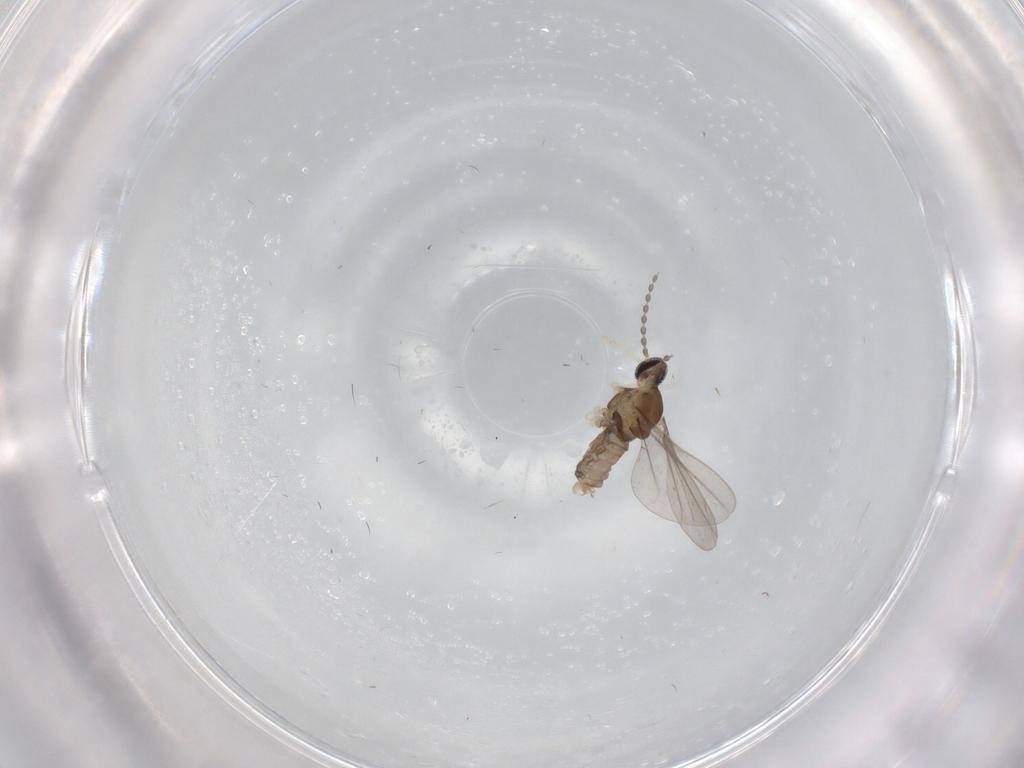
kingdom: Animalia
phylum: Arthropoda
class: Insecta
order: Diptera
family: Cecidomyiidae
